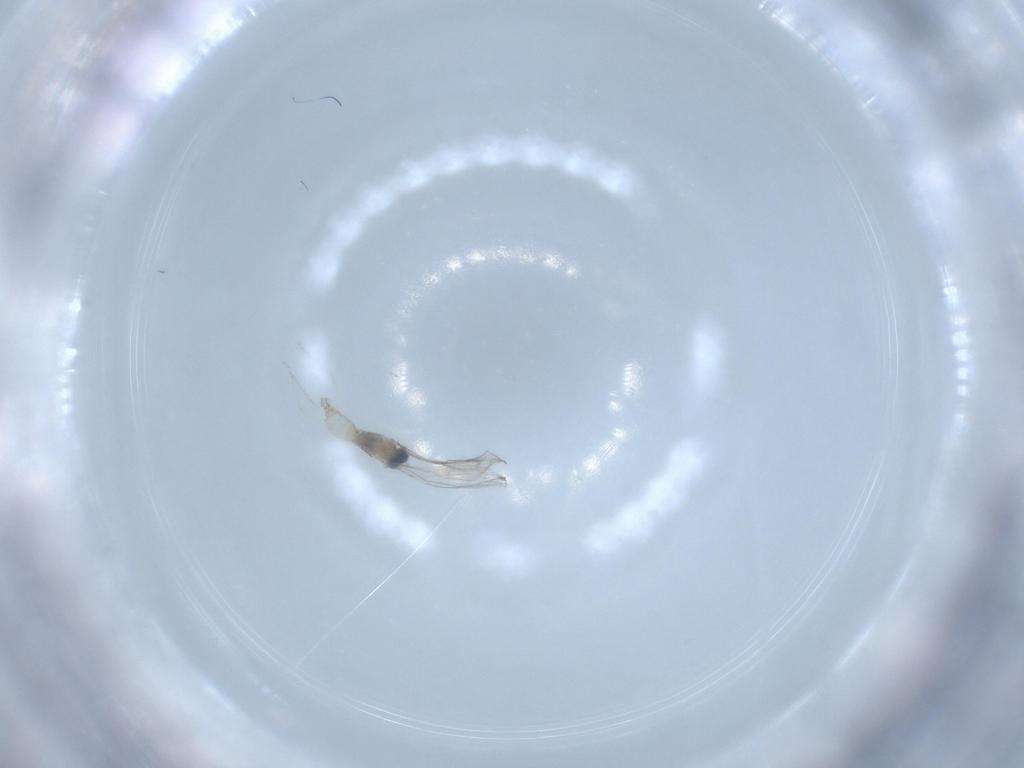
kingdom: Animalia
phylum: Arthropoda
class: Insecta
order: Diptera
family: Cecidomyiidae
